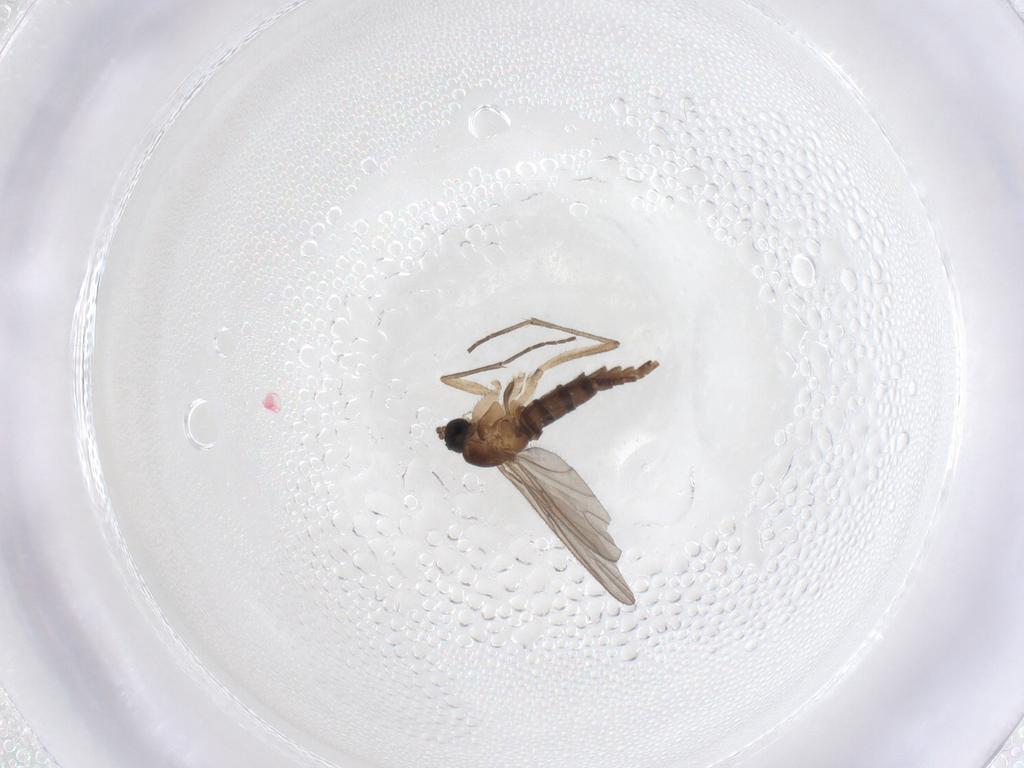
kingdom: Animalia
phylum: Arthropoda
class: Insecta
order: Diptera
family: Sciaridae
